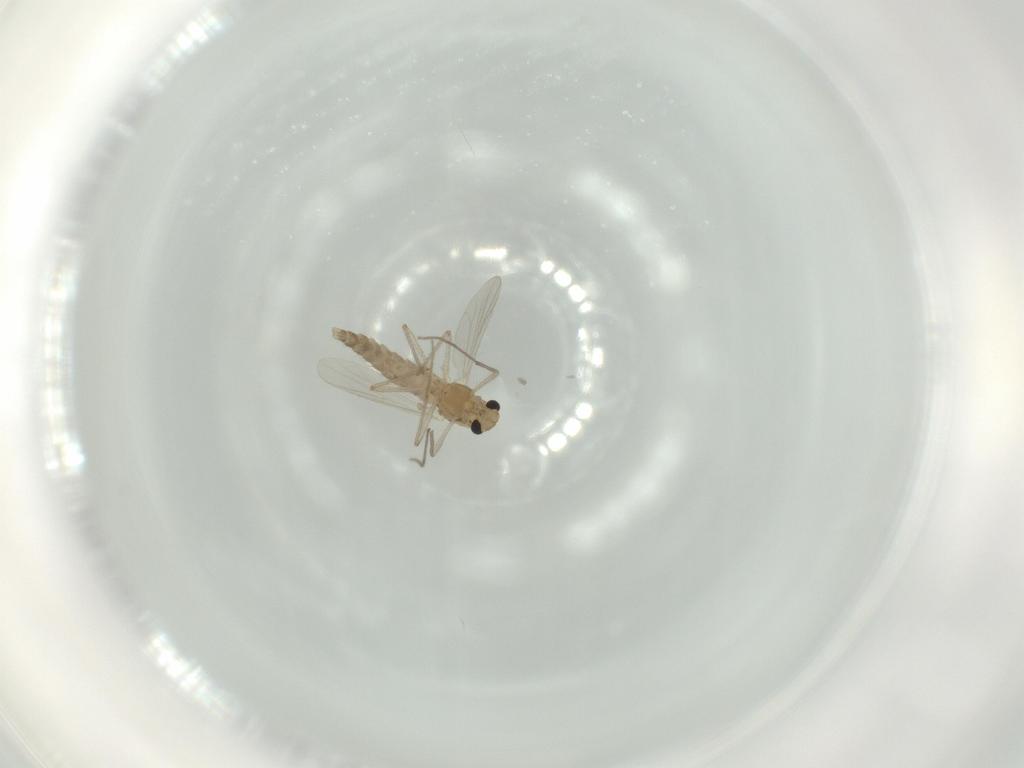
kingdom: Animalia
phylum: Arthropoda
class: Insecta
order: Diptera
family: Chironomidae
